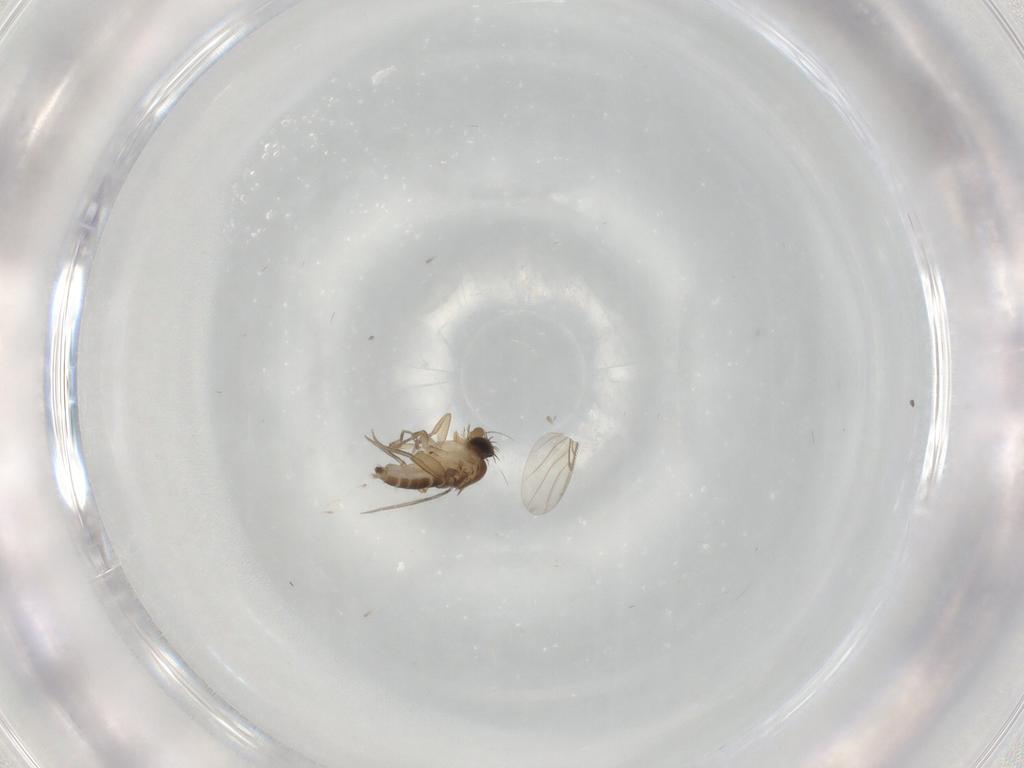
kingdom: Animalia
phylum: Arthropoda
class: Insecta
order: Diptera
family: Phoridae
